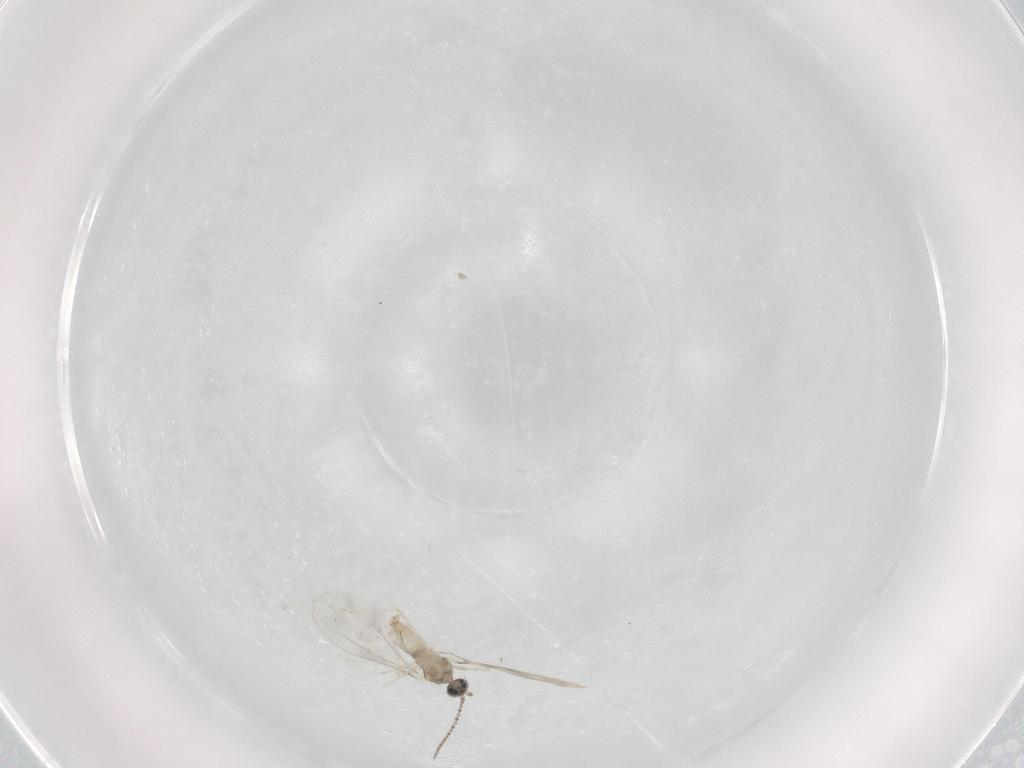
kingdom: Animalia
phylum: Arthropoda
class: Insecta
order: Diptera
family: Cecidomyiidae
